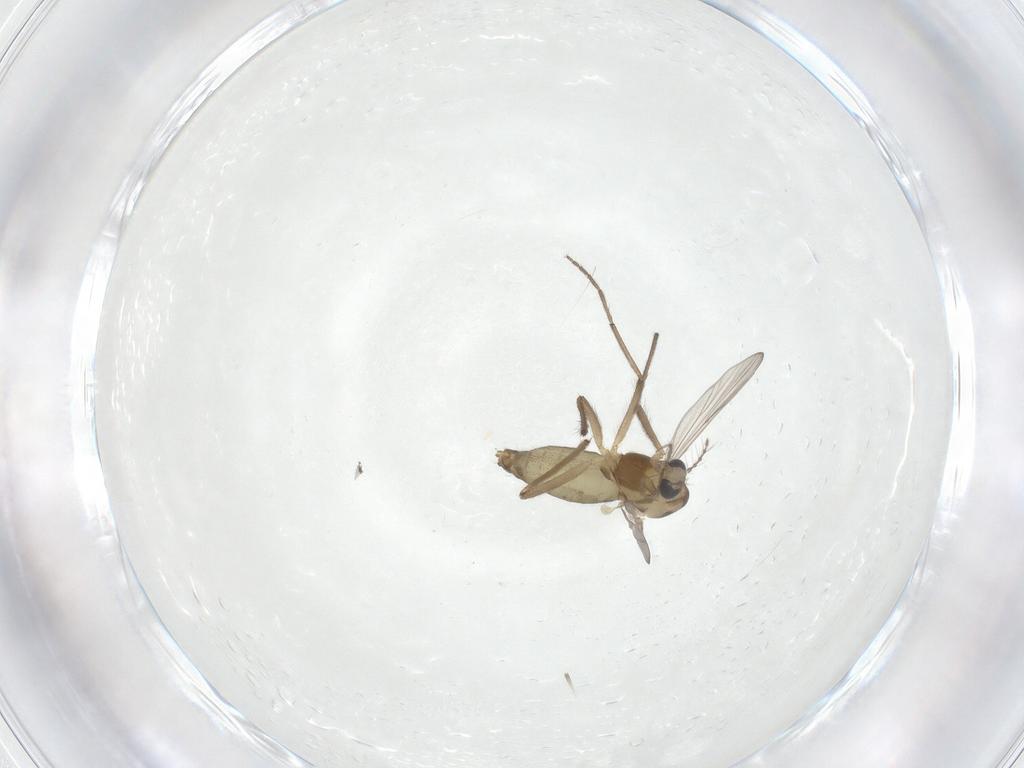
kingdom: Animalia
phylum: Arthropoda
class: Insecta
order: Diptera
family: Chironomidae
